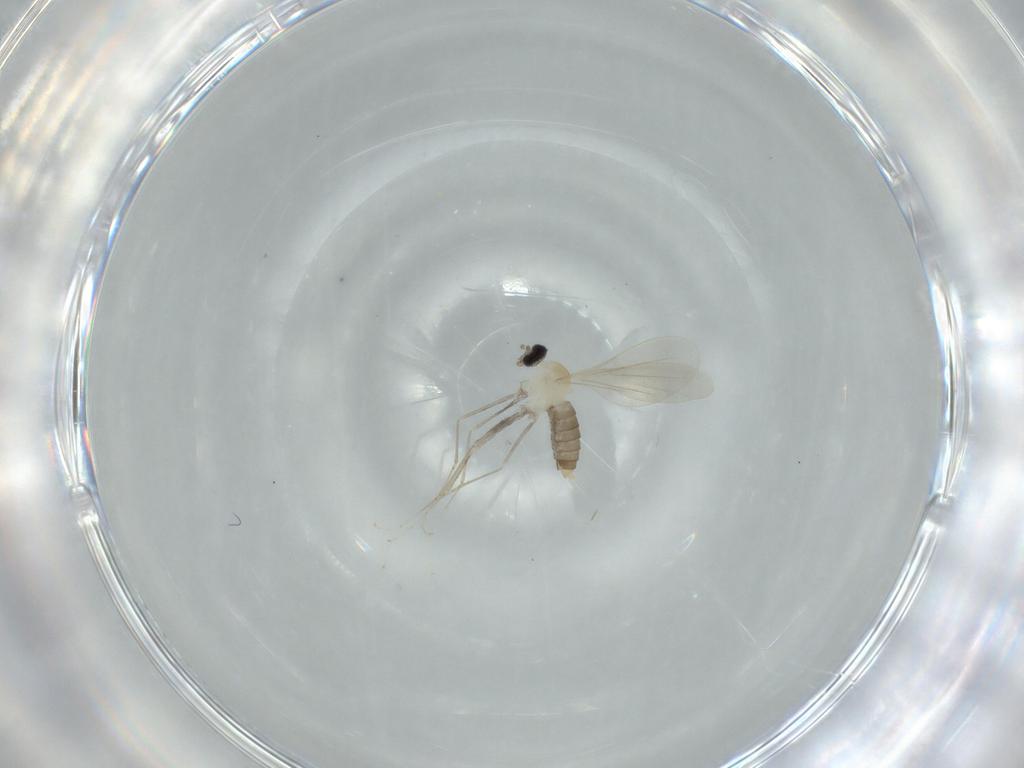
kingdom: Animalia
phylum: Arthropoda
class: Insecta
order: Diptera
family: Cecidomyiidae
